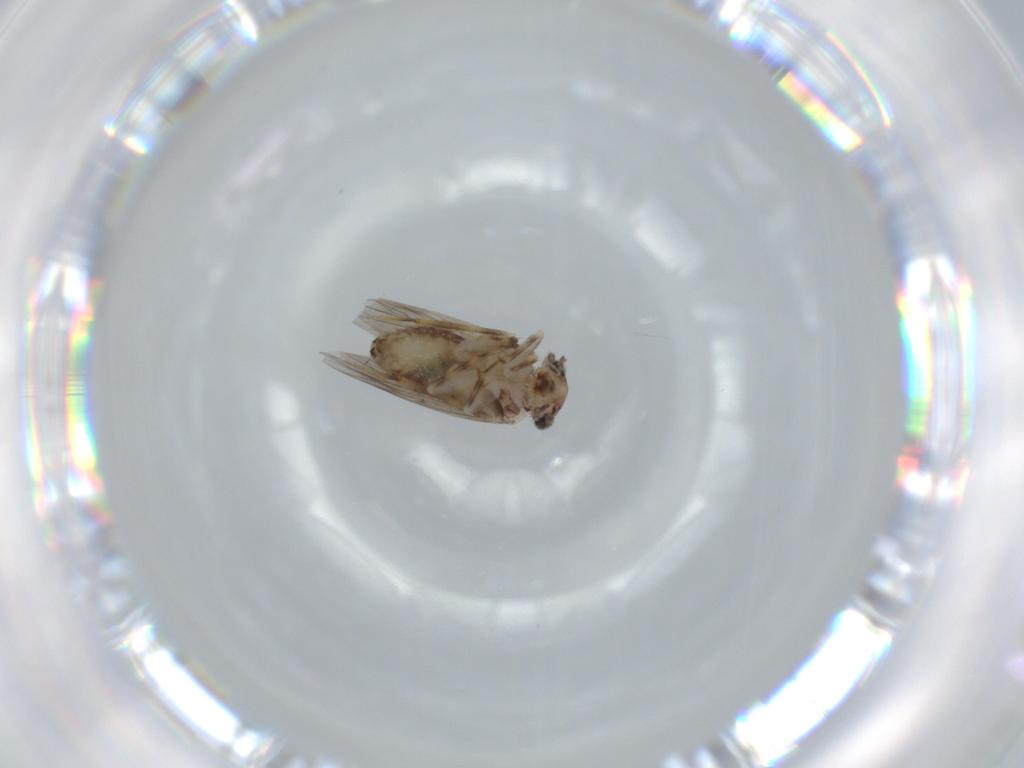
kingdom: Animalia
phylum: Arthropoda
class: Insecta
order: Psocodea
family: Lepidopsocidae
